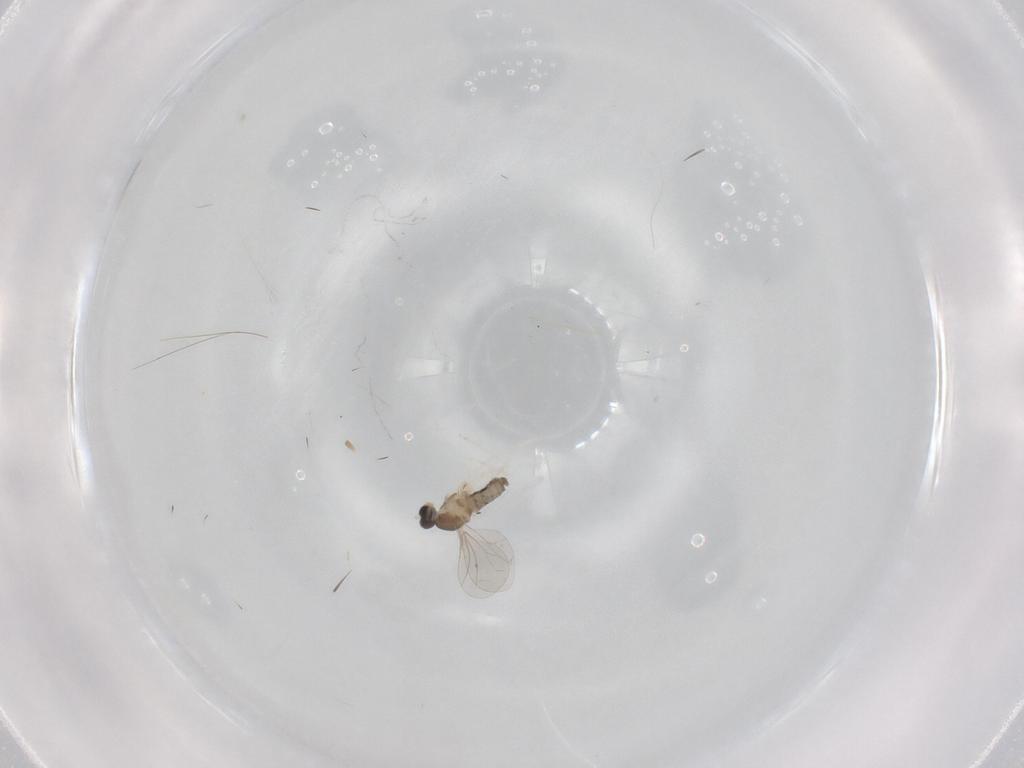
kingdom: Animalia
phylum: Arthropoda
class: Insecta
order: Diptera
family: Cecidomyiidae
